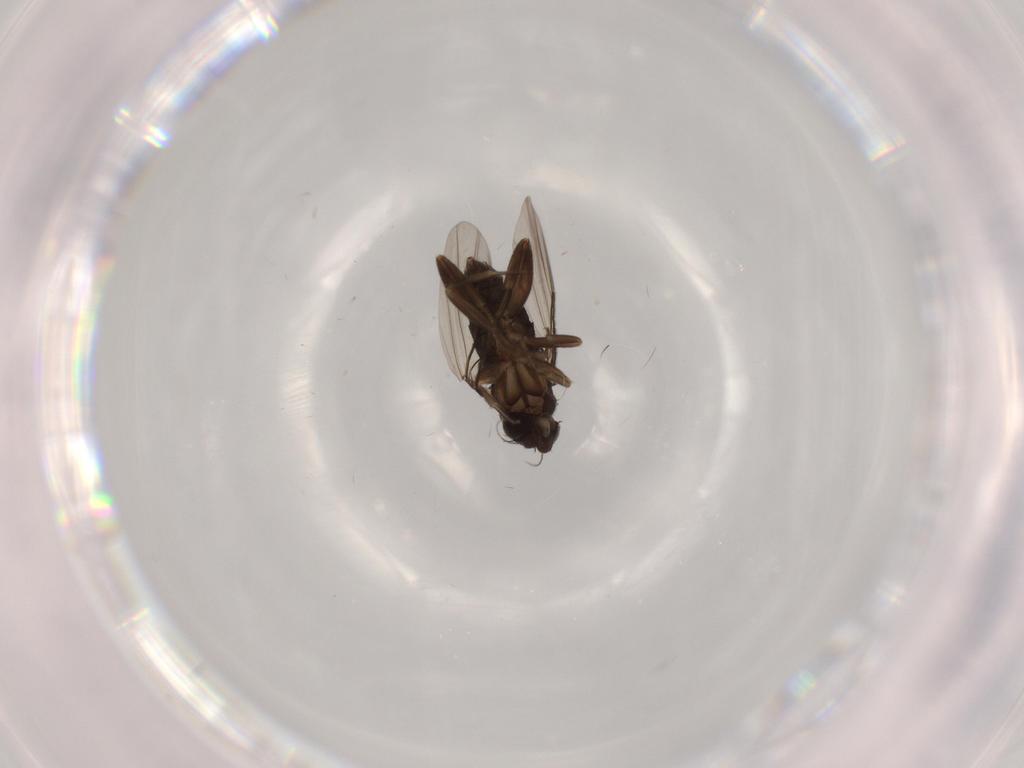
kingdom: Animalia
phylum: Arthropoda
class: Insecta
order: Diptera
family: Phoridae
